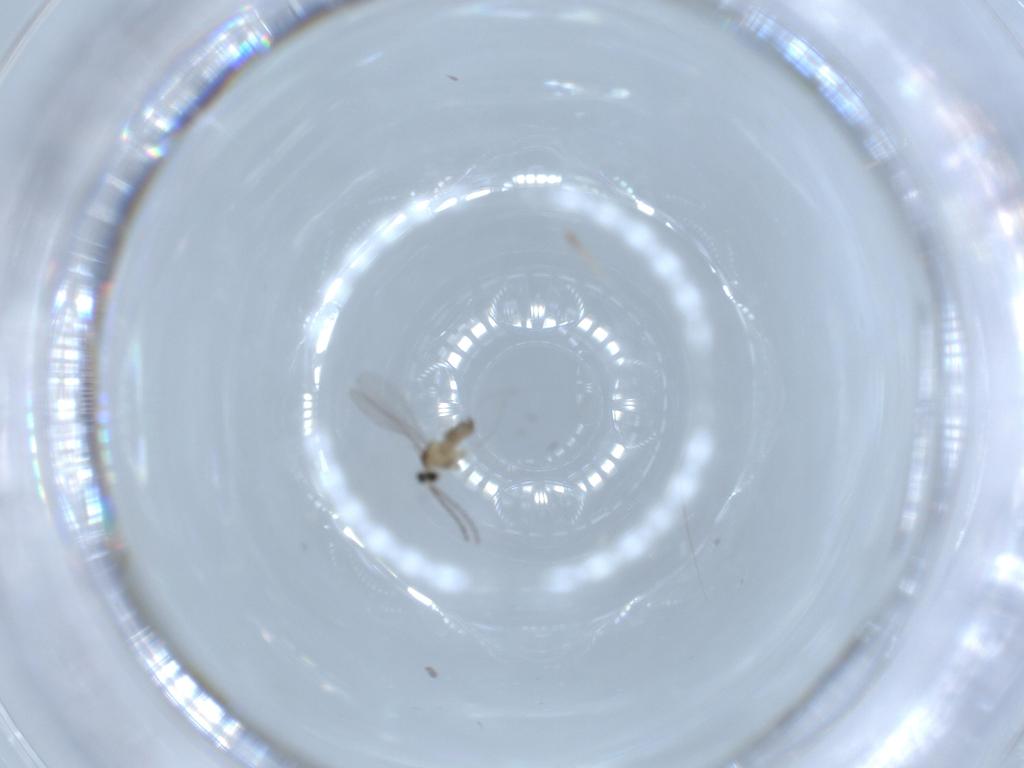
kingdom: Animalia
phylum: Arthropoda
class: Insecta
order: Diptera
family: Cecidomyiidae
